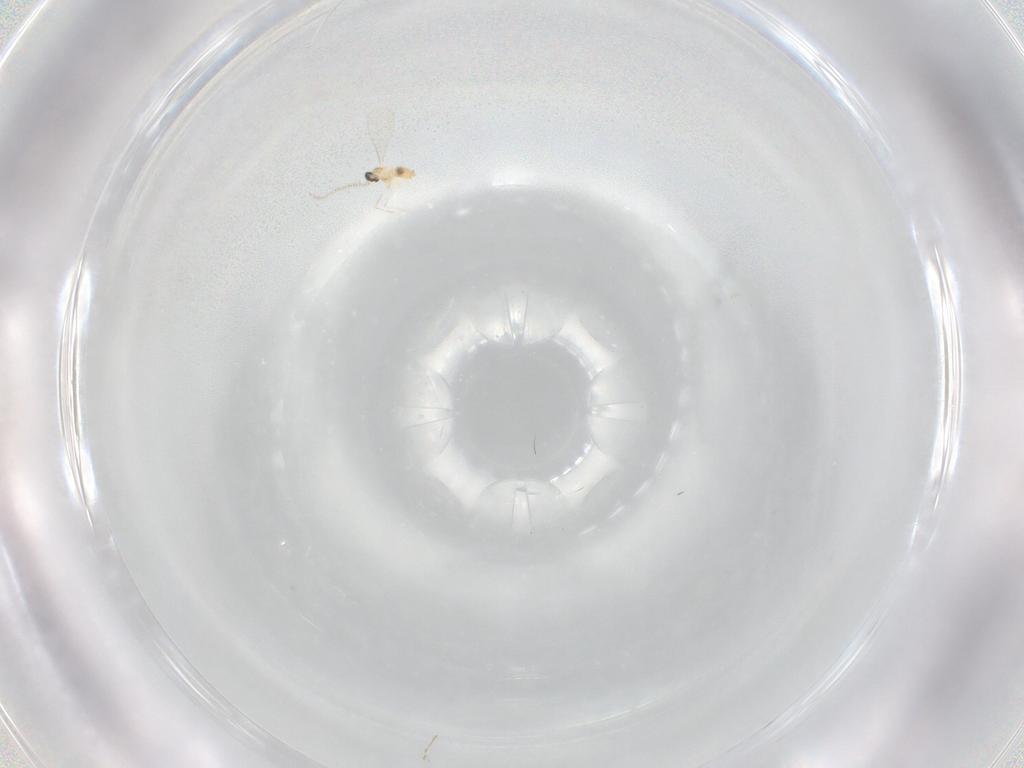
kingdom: Animalia
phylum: Arthropoda
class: Insecta
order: Diptera
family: Cecidomyiidae
